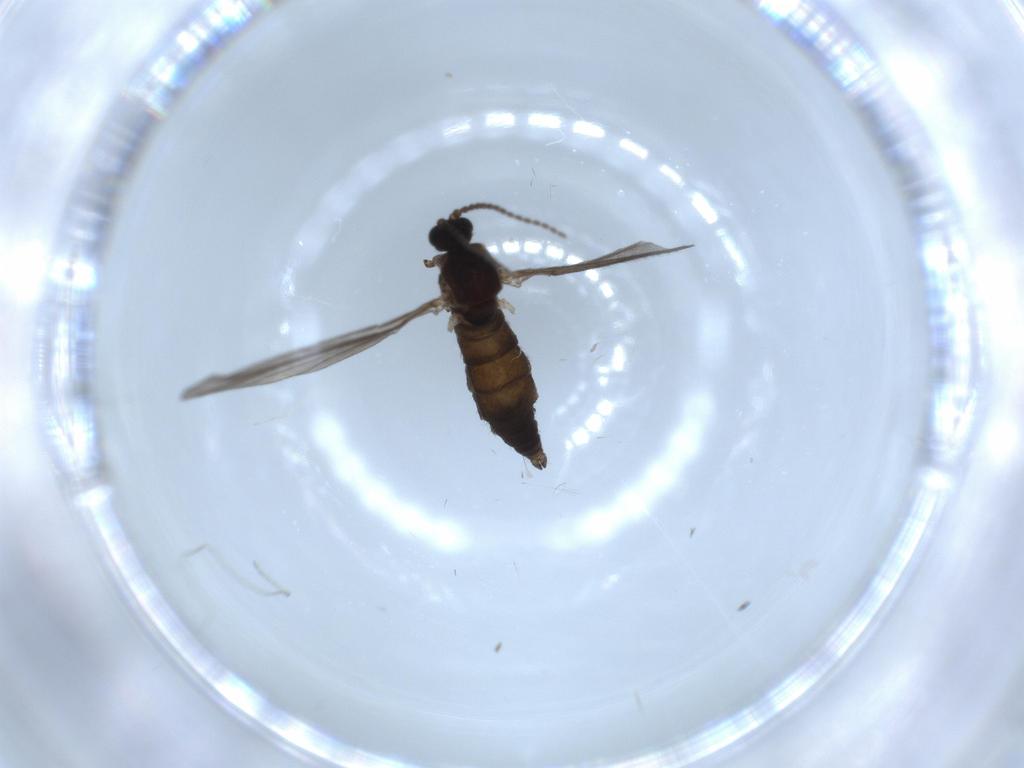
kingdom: Animalia
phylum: Arthropoda
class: Insecta
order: Diptera
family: Sciaridae
